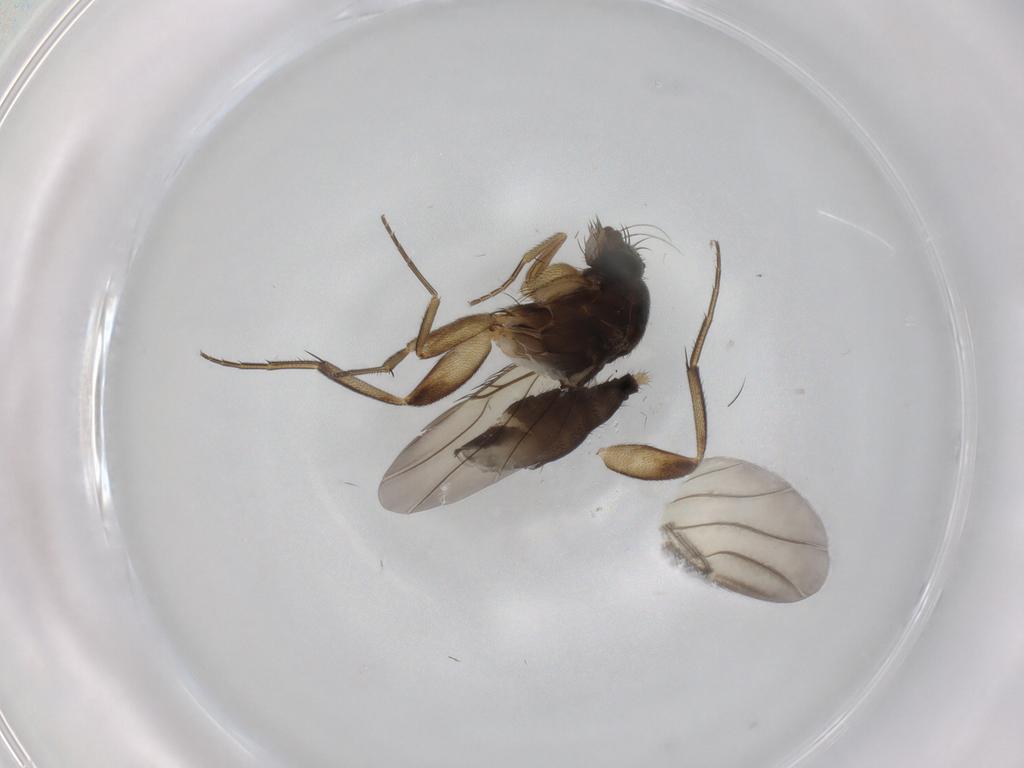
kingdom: Animalia
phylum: Arthropoda
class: Insecta
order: Diptera
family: Phoridae
